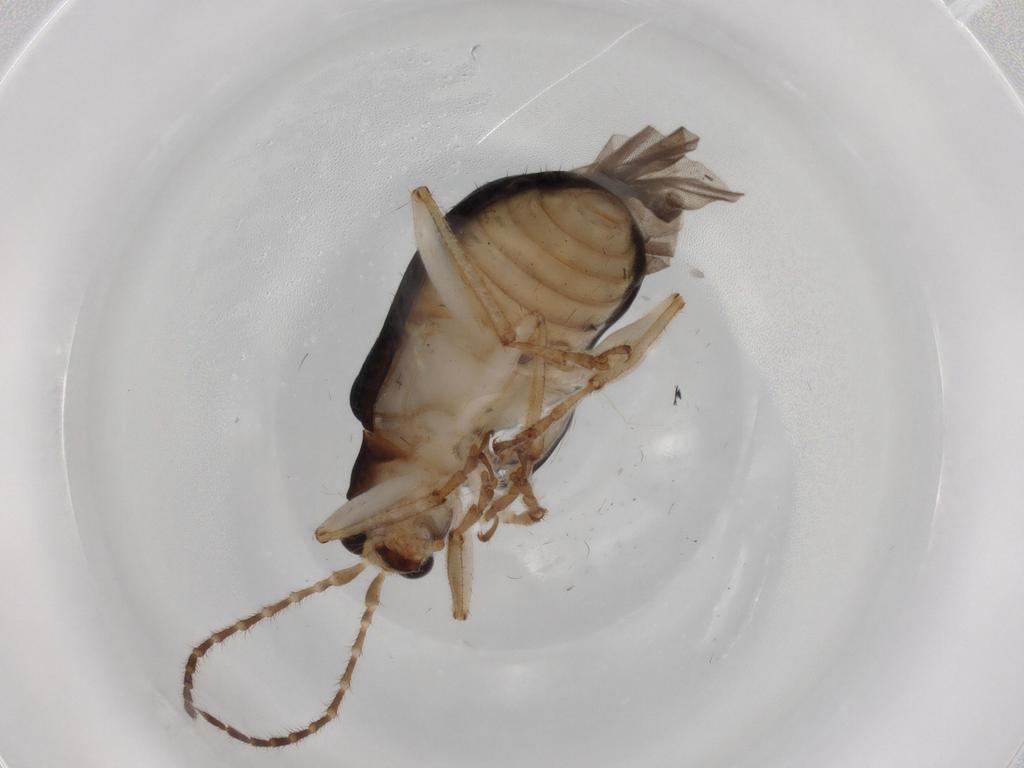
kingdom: Animalia
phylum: Arthropoda
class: Insecta
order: Coleoptera
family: Chrysomelidae
